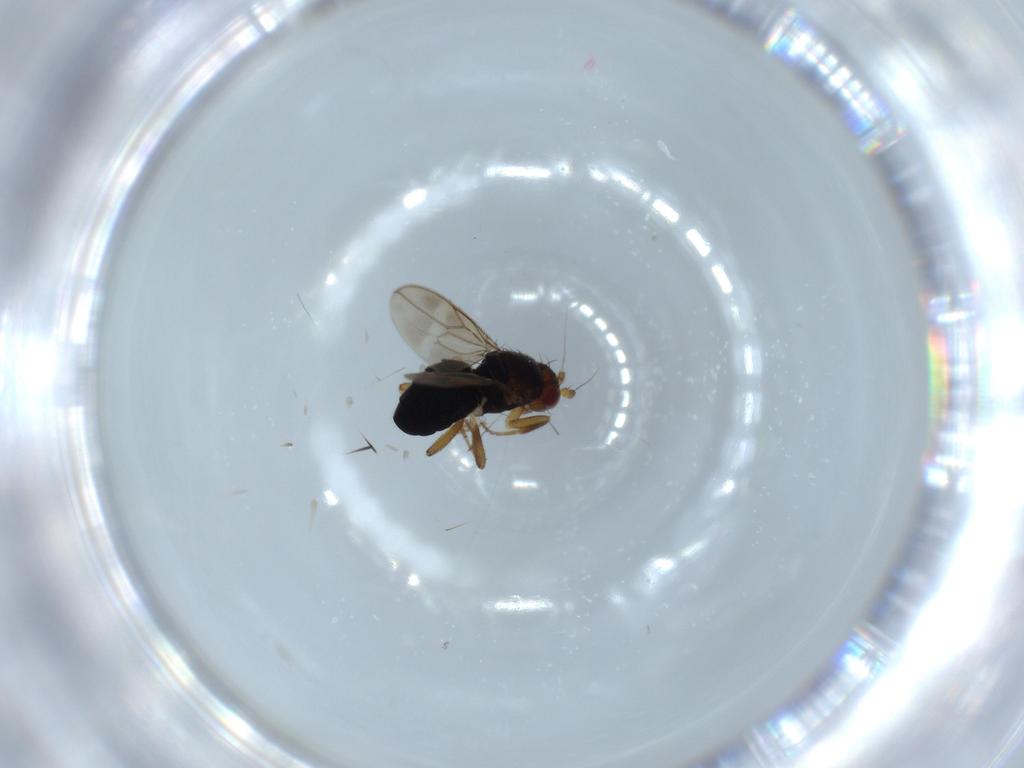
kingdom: Animalia
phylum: Arthropoda
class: Insecta
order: Diptera
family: Sphaeroceridae
